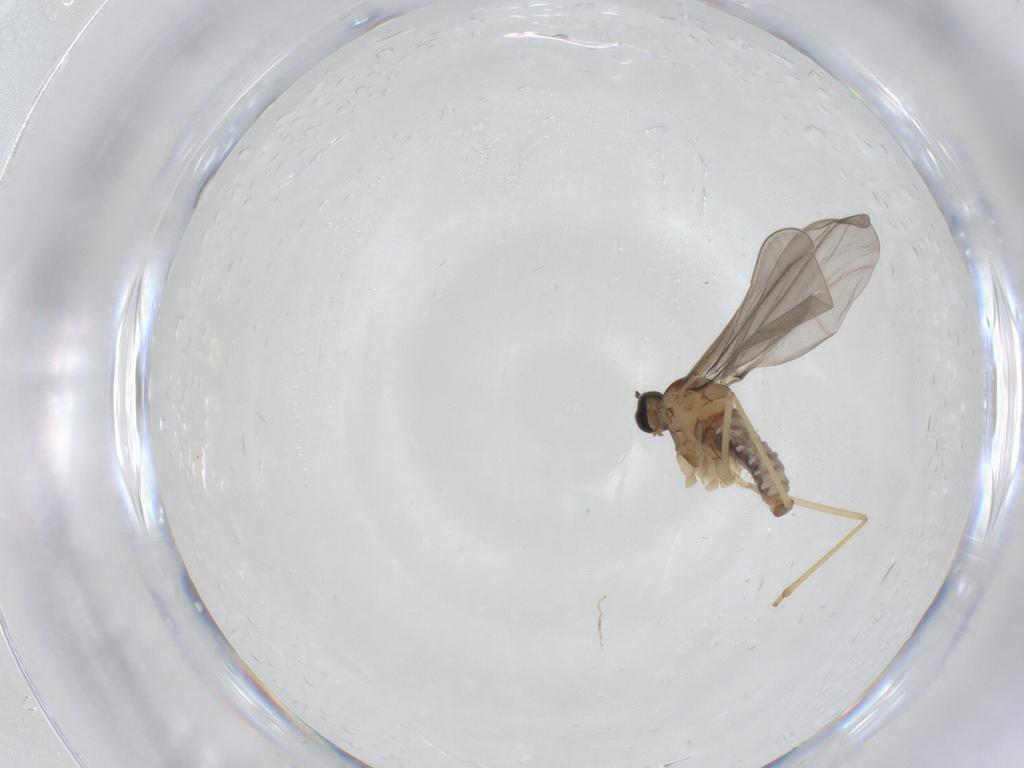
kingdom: Animalia
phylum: Arthropoda
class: Insecta
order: Diptera
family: Cecidomyiidae
